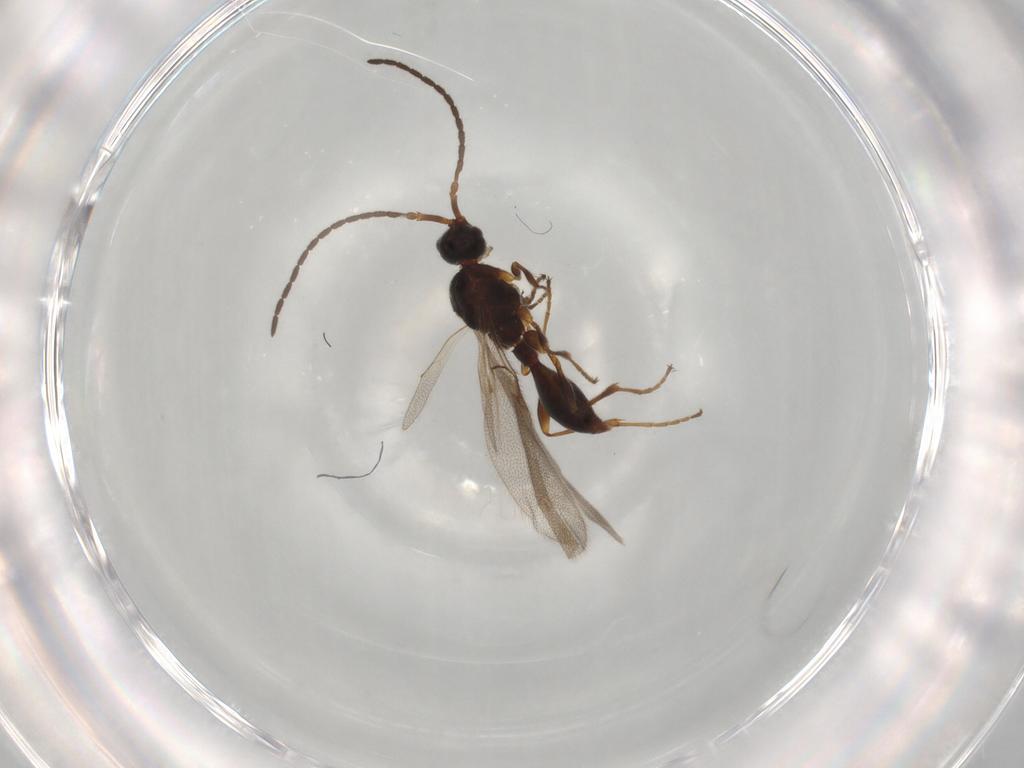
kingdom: Animalia
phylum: Arthropoda
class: Insecta
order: Hymenoptera
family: Diapriidae
